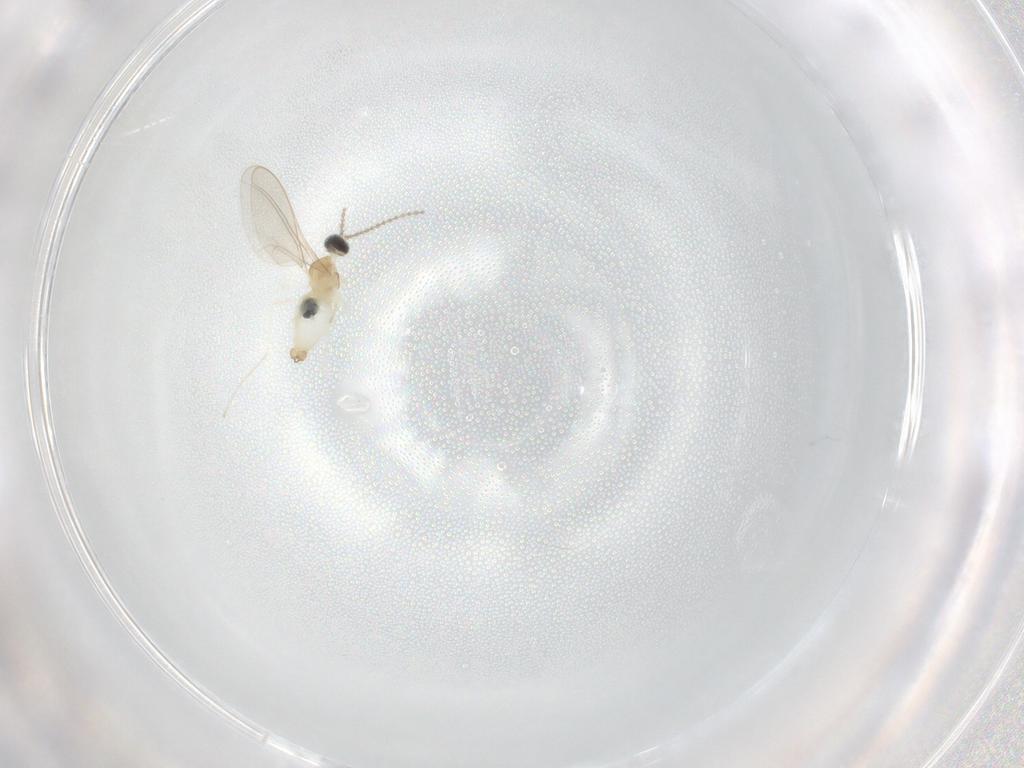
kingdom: Animalia
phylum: Arthropoda
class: Insecta
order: Diptera
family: Cecidomyiidae
